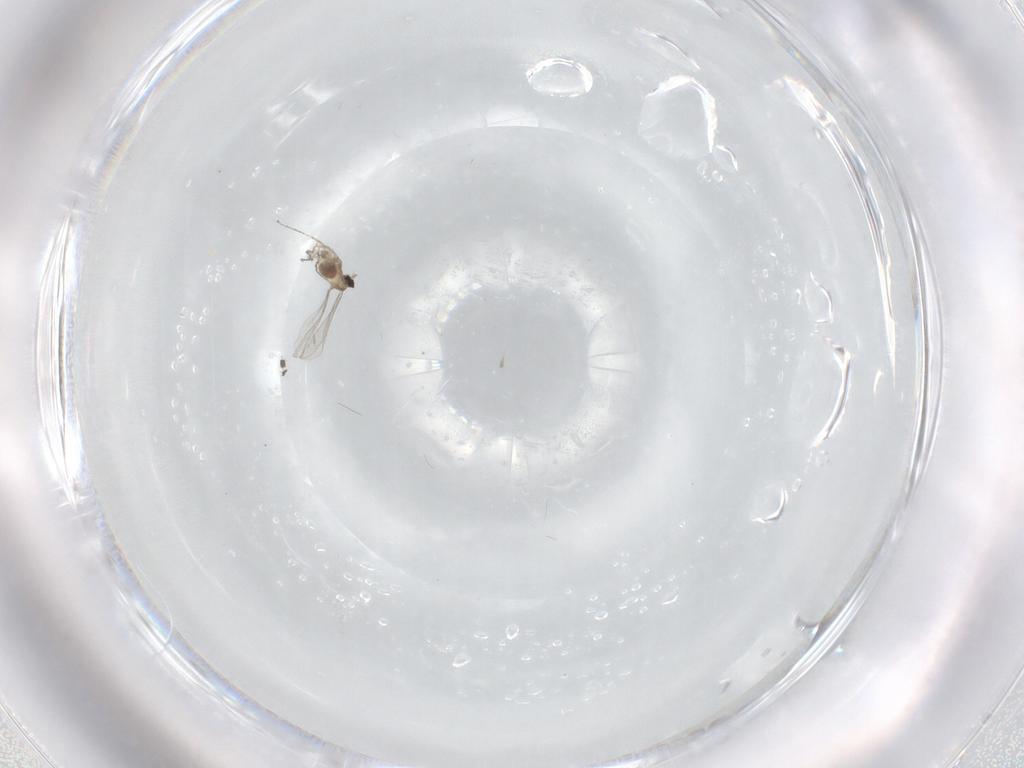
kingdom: Animalia
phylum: Arthropoda
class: Insecta
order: Diptera
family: Cecidomyiidae
